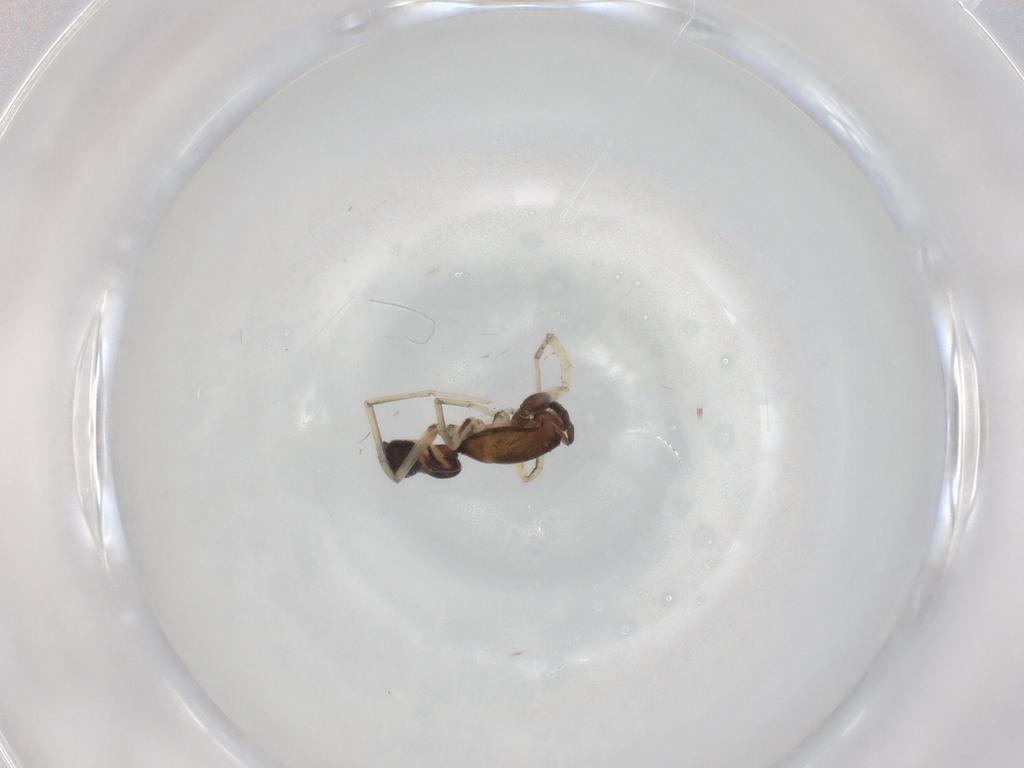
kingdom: Animalia
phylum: Arthropoda
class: Arachnida
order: Araneae
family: Gnaphosidae
